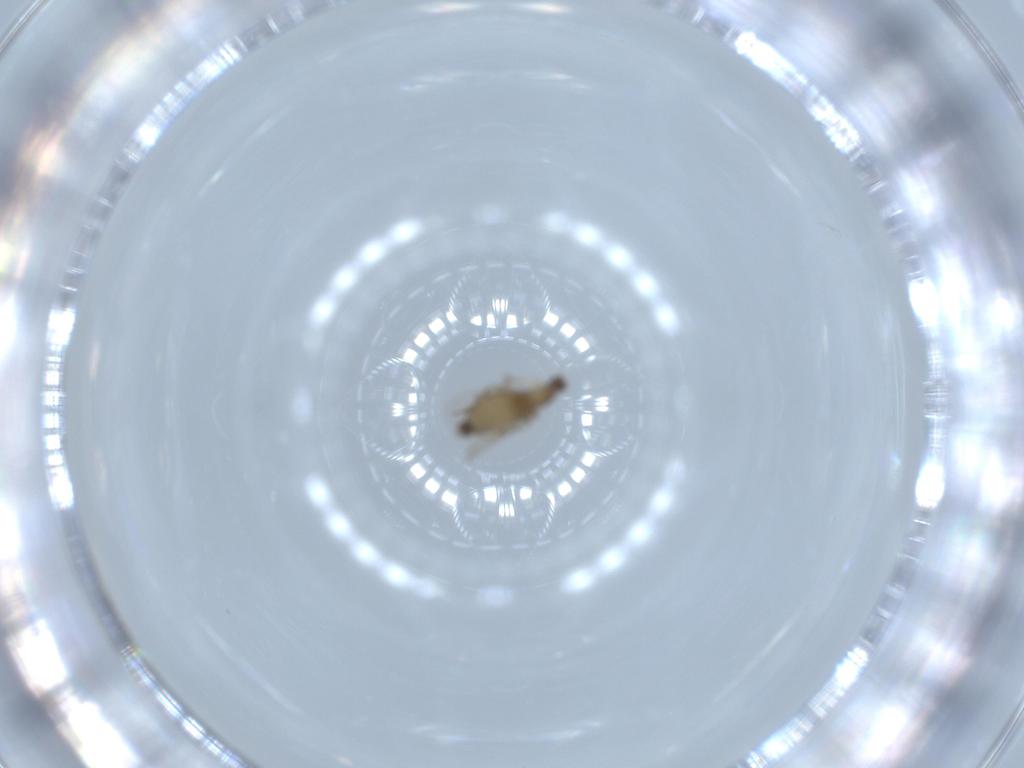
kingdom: Animalia
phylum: Arthropoda
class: Insecta
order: Diptera
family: Phoridae
